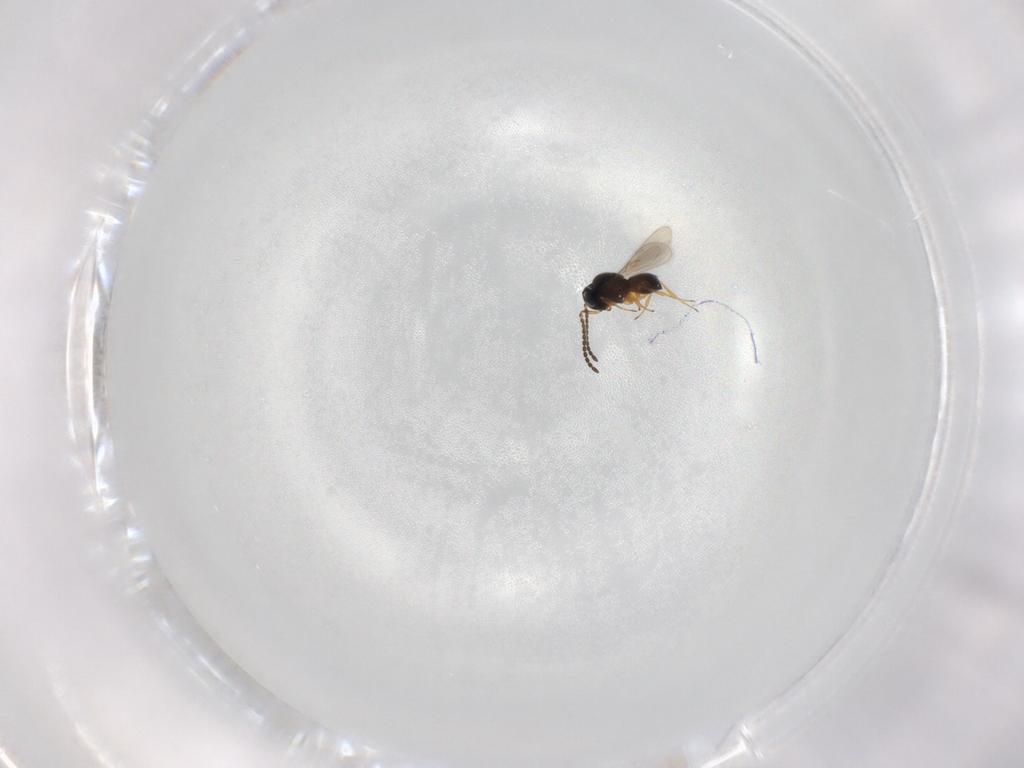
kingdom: Animalia
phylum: Arthropoda
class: Insecta
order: Hymenoptera
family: Scelionidae
